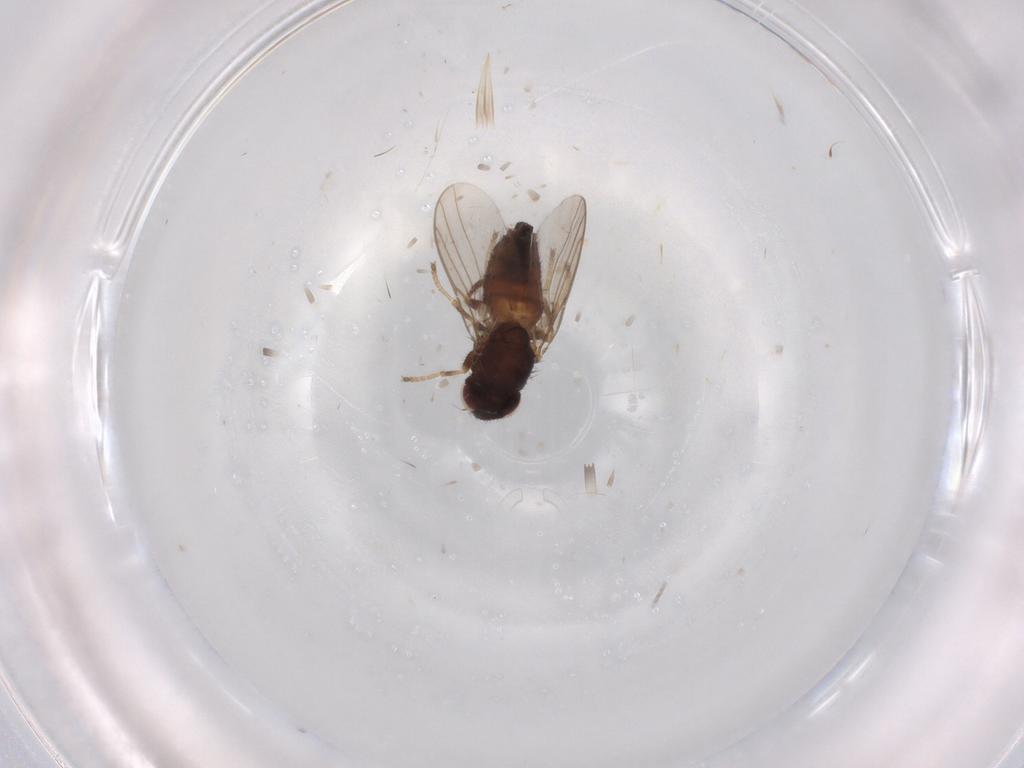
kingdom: Animalia
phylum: Arthropoda
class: Insecta
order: Diptera
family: Chloropidae
